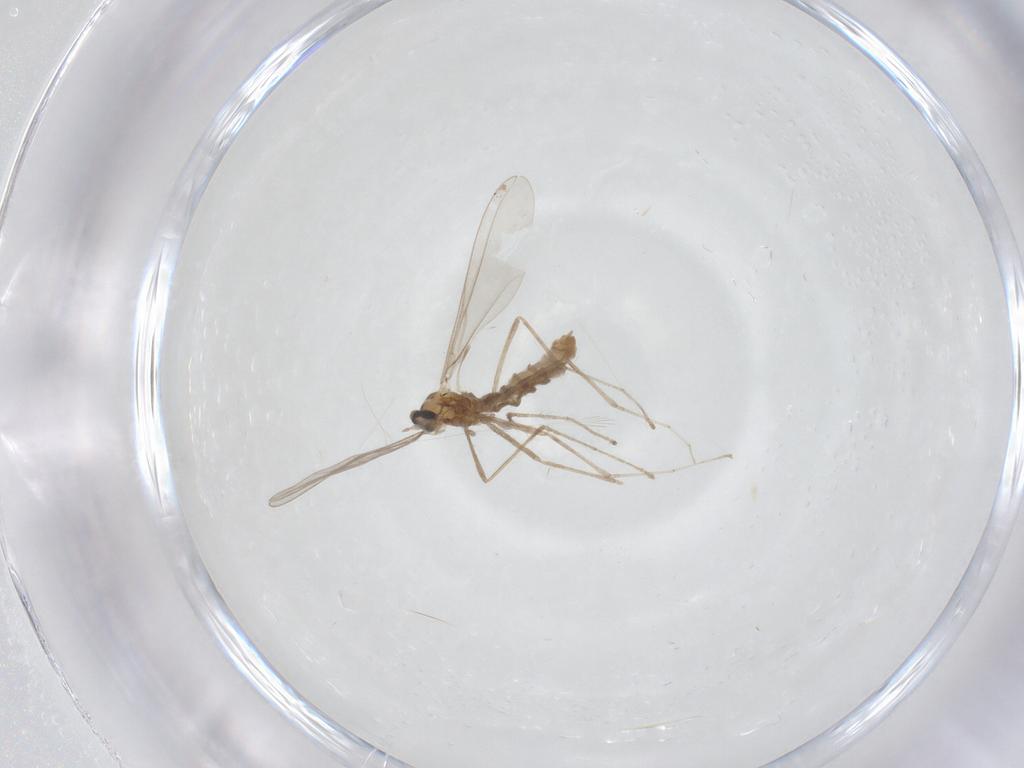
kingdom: Animalia
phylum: Arthropoda
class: Insecta
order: Diptera
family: Cecidomyiidae
